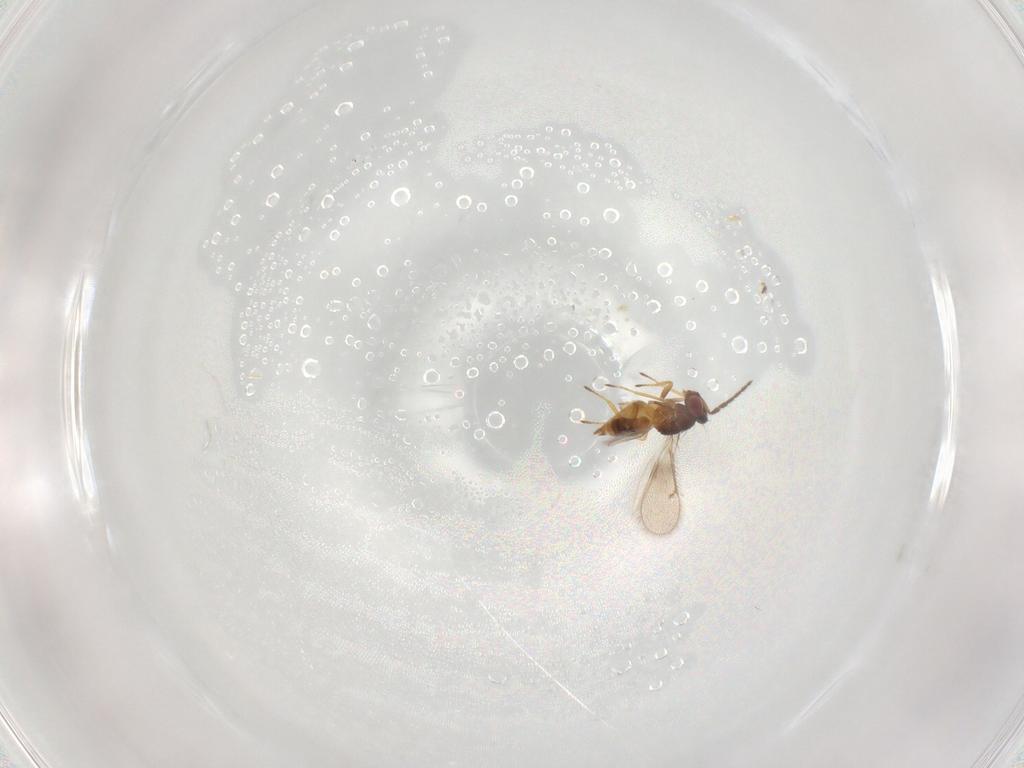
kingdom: Animalia
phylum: Arthropoda
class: Insecta
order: Hymenoptera
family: Eulophidae
